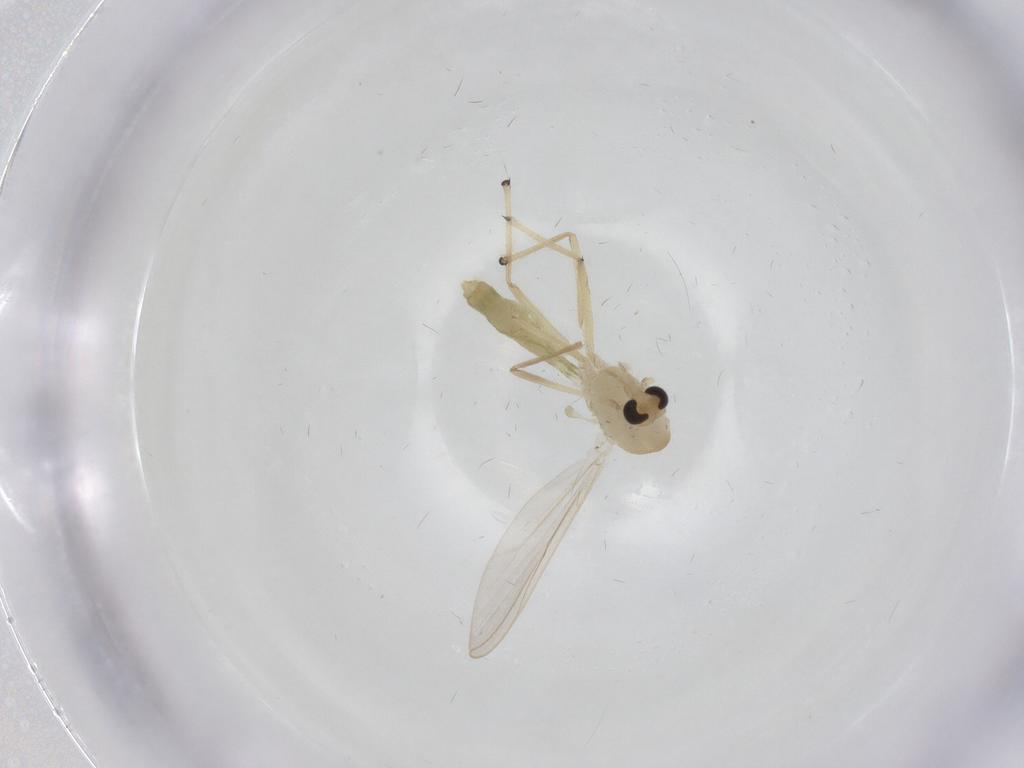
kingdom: Animalia
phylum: Arthropoda
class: Insecta
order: Diptera
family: Chironomidae
